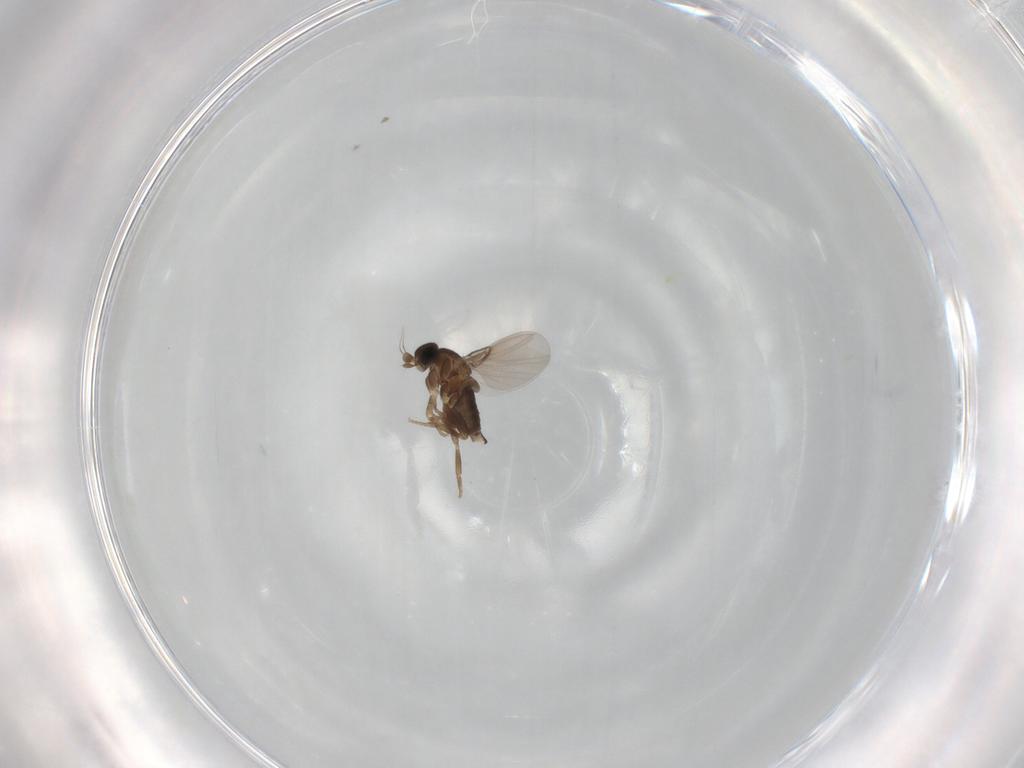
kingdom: Animalia
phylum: Arthropoda
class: Insecta
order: Diptera
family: Phoridae
